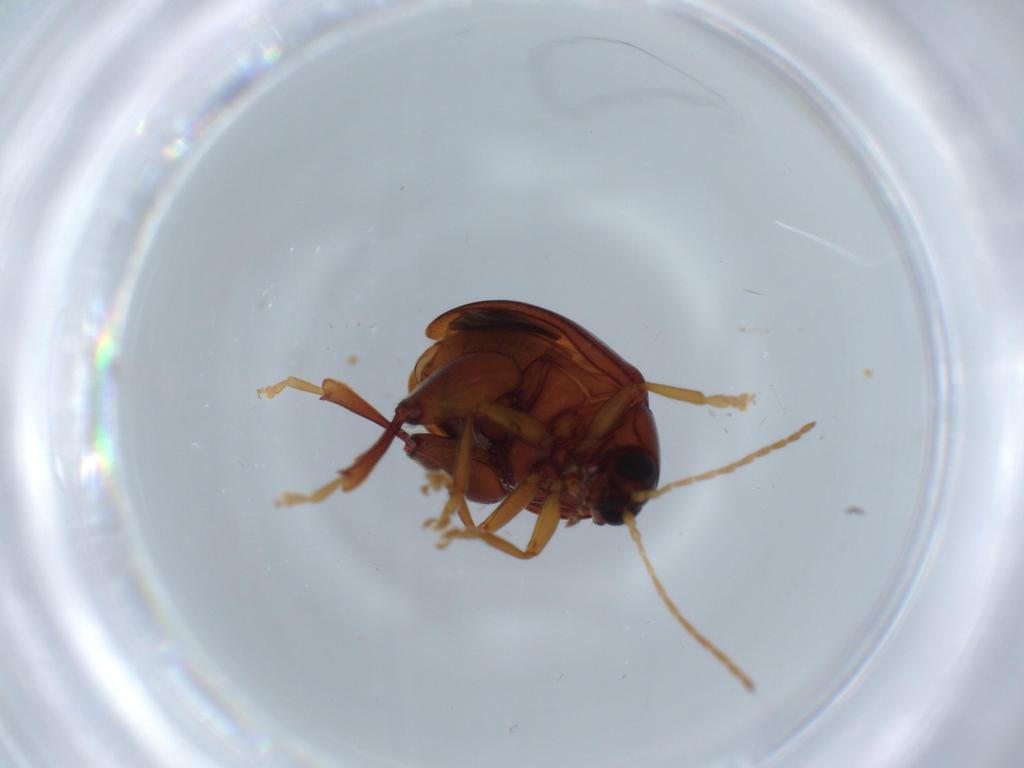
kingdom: Animalia
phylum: Arthropoda
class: Insecta
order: Coleoptera
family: Chrysomelidae
